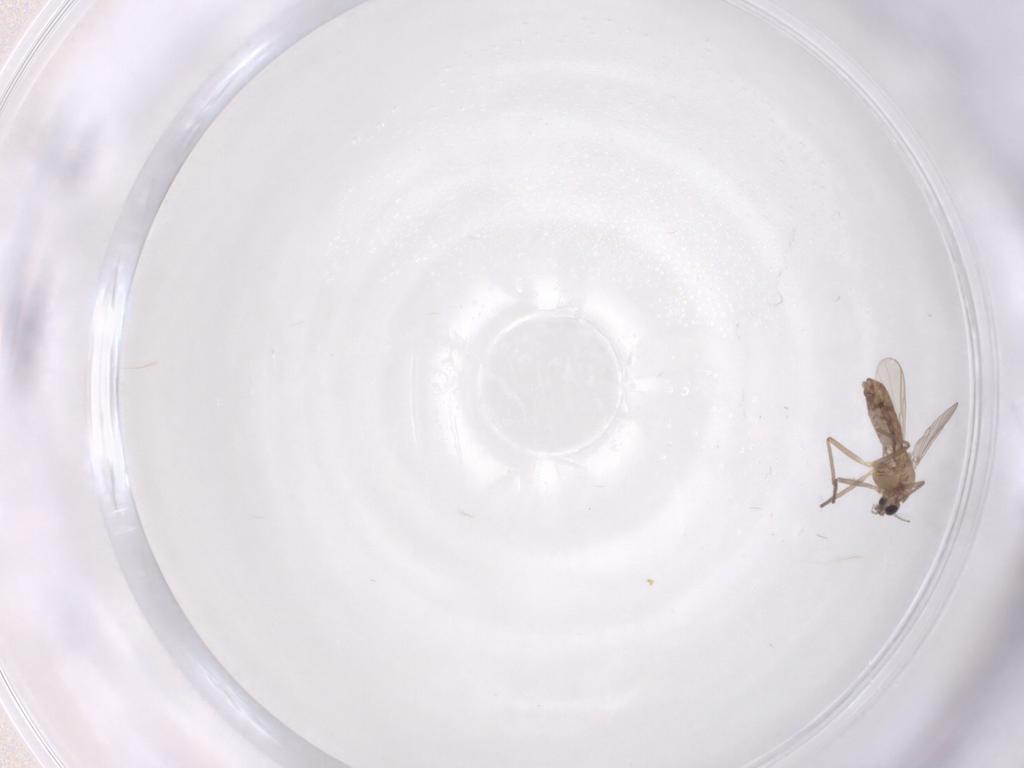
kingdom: Animalia
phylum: Arthropoda
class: Insecta
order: Diptera
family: Chironomidae
